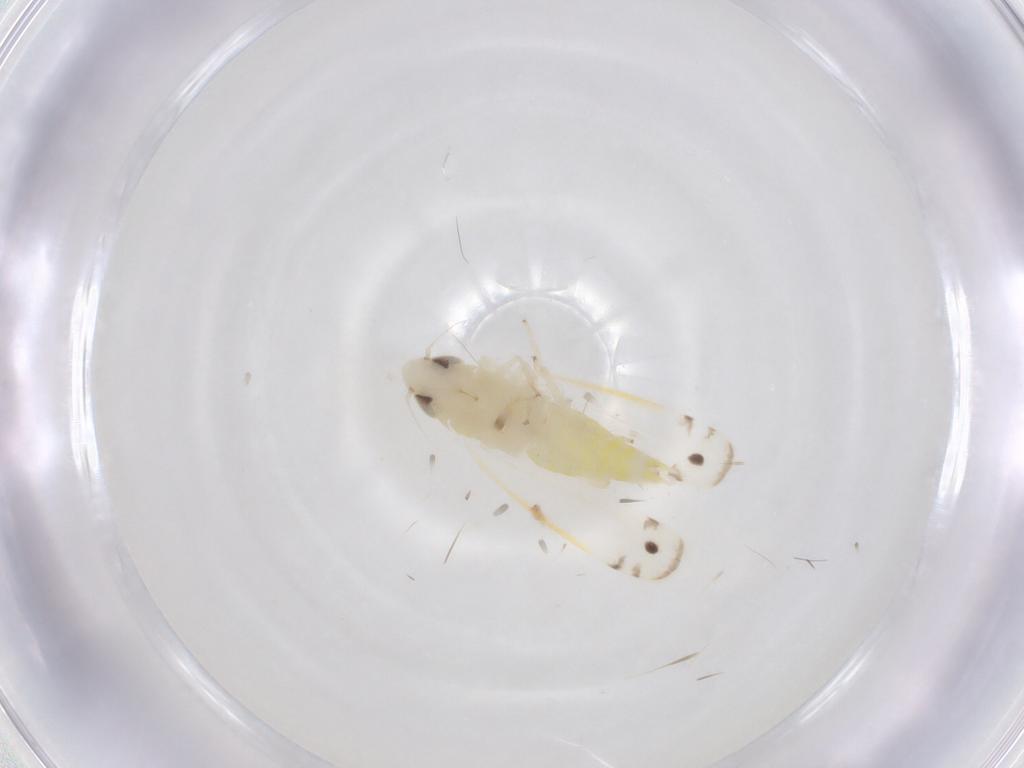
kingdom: Animalia
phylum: Arthropoda
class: Insecta
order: Hemiptera
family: Cicadellidae
